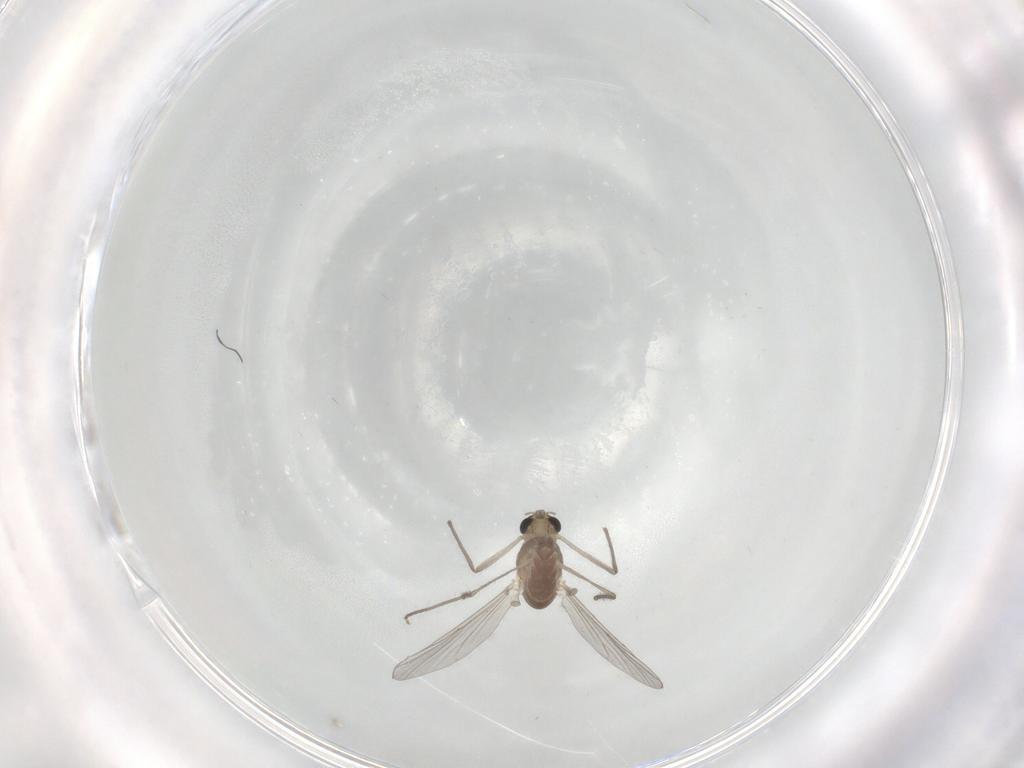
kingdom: Animalia
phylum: Arthropoda
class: Insecta
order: Diptera
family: Chironomidae
